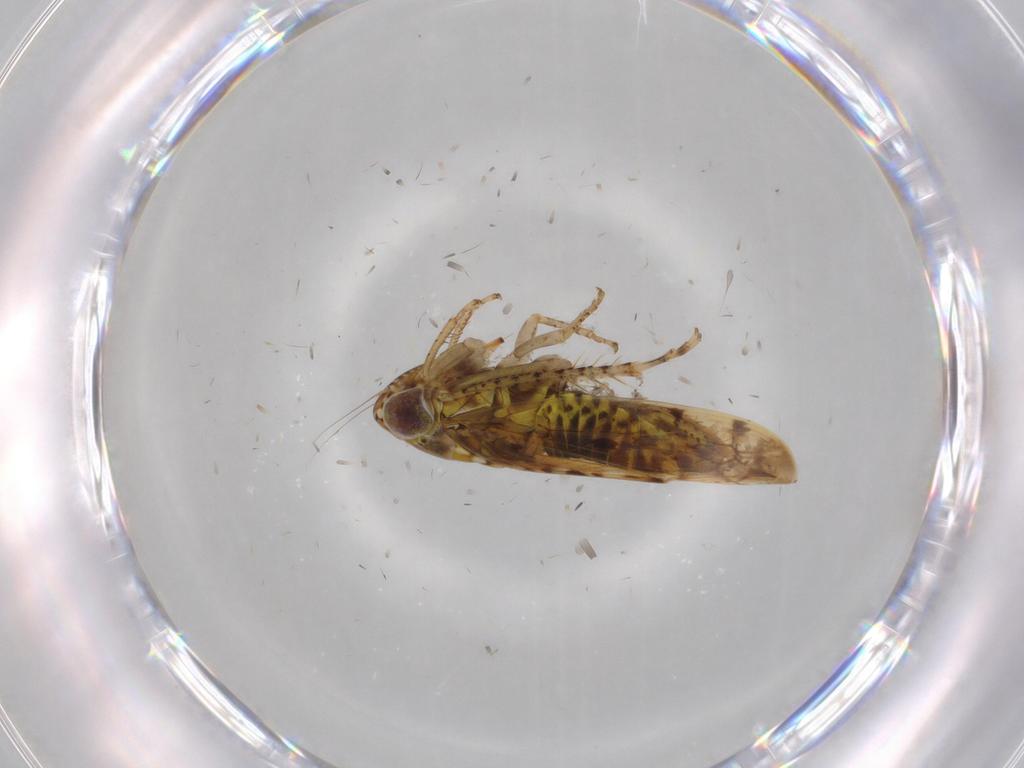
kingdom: Animalia
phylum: Arthropoda
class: Insecta
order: Hemiptera
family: Cicadellidae
